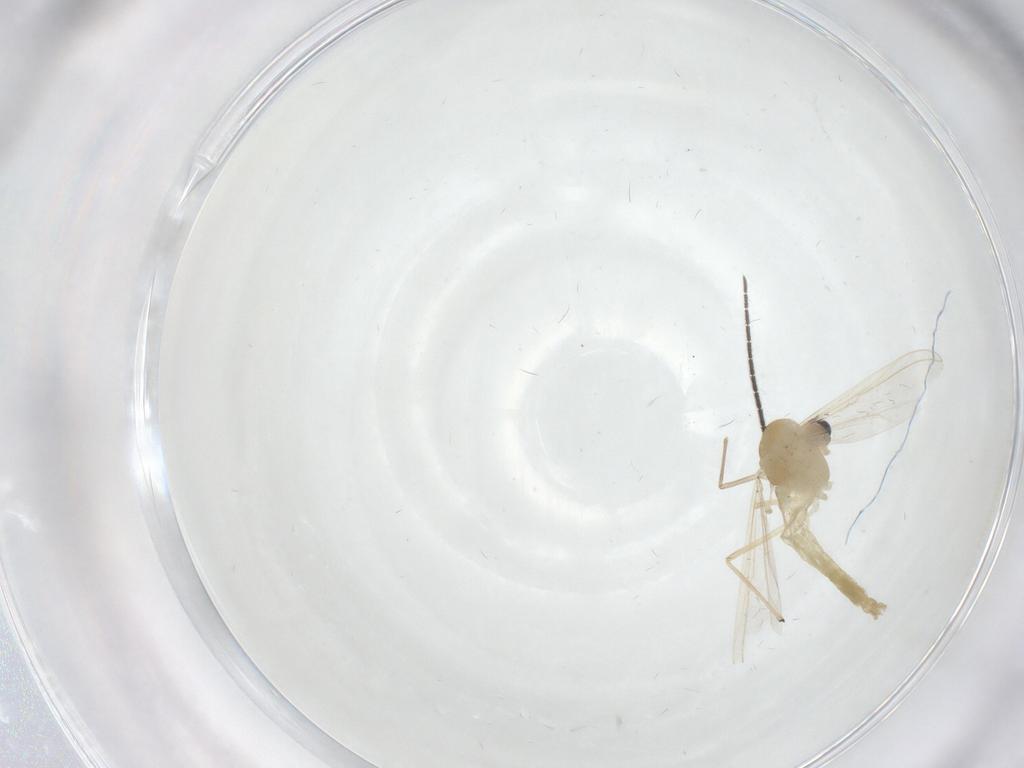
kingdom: Animalia
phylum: Arthropoda
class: Insecta
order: Diptera
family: Chironomidae
